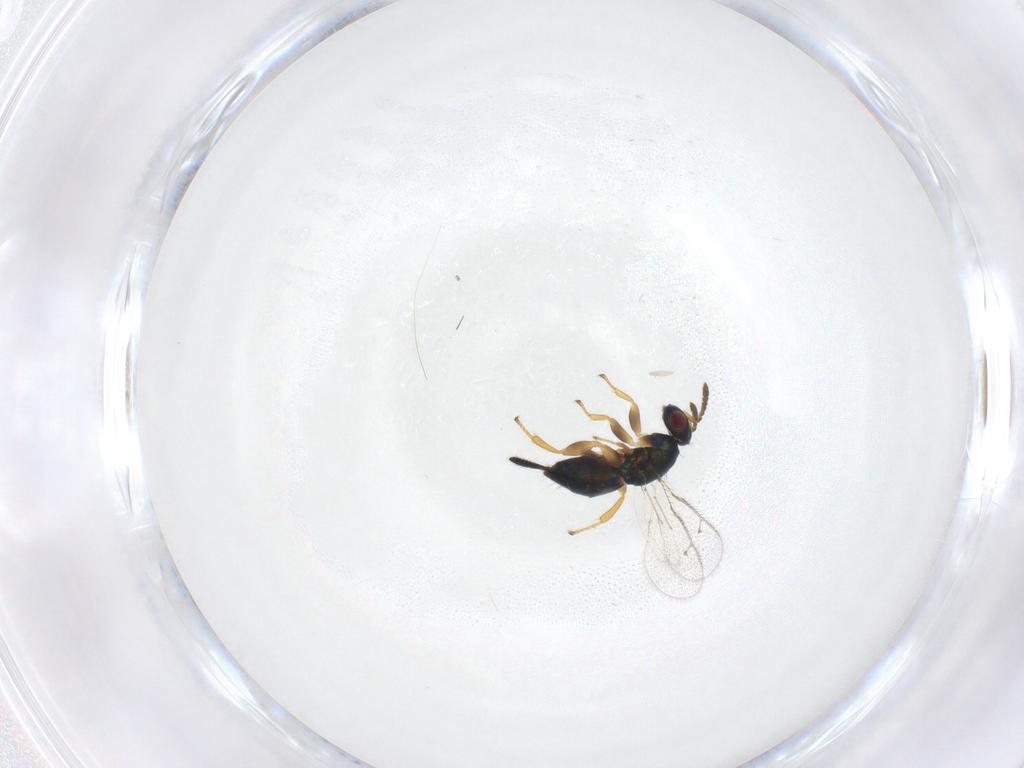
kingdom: Animalia
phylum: Arthropoda
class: Insecta
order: Hymenoptera
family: Torymidae
